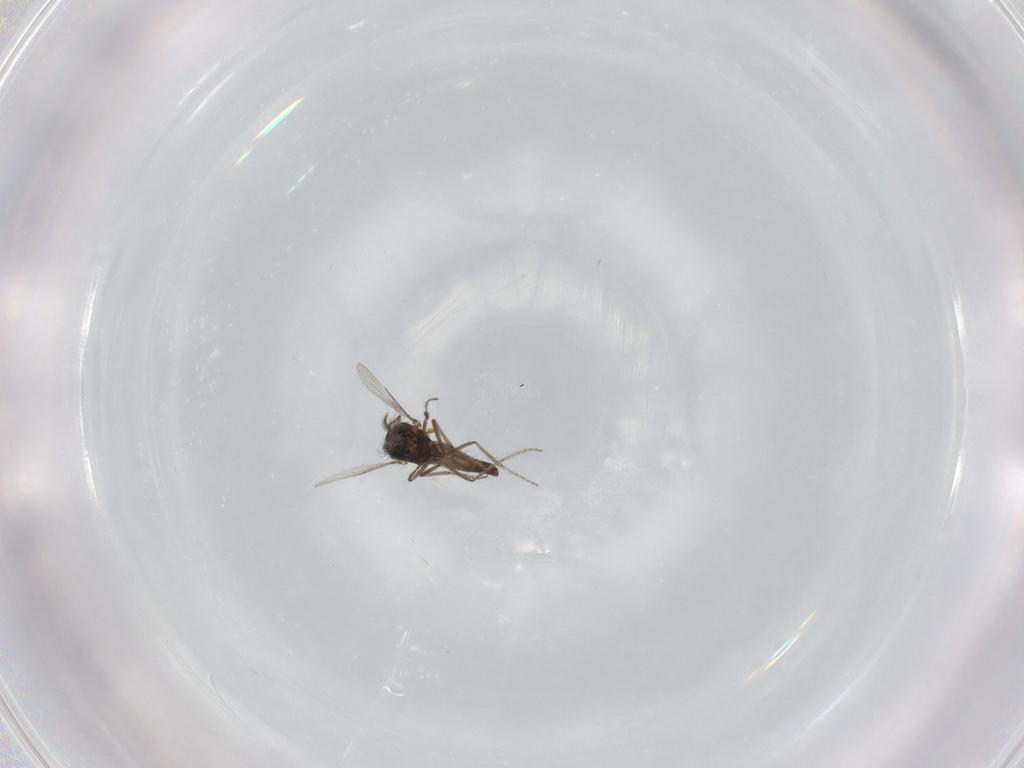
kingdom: Animalia
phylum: Arthropoda
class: Insecta
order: Diptera
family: Ceratopogonidae
